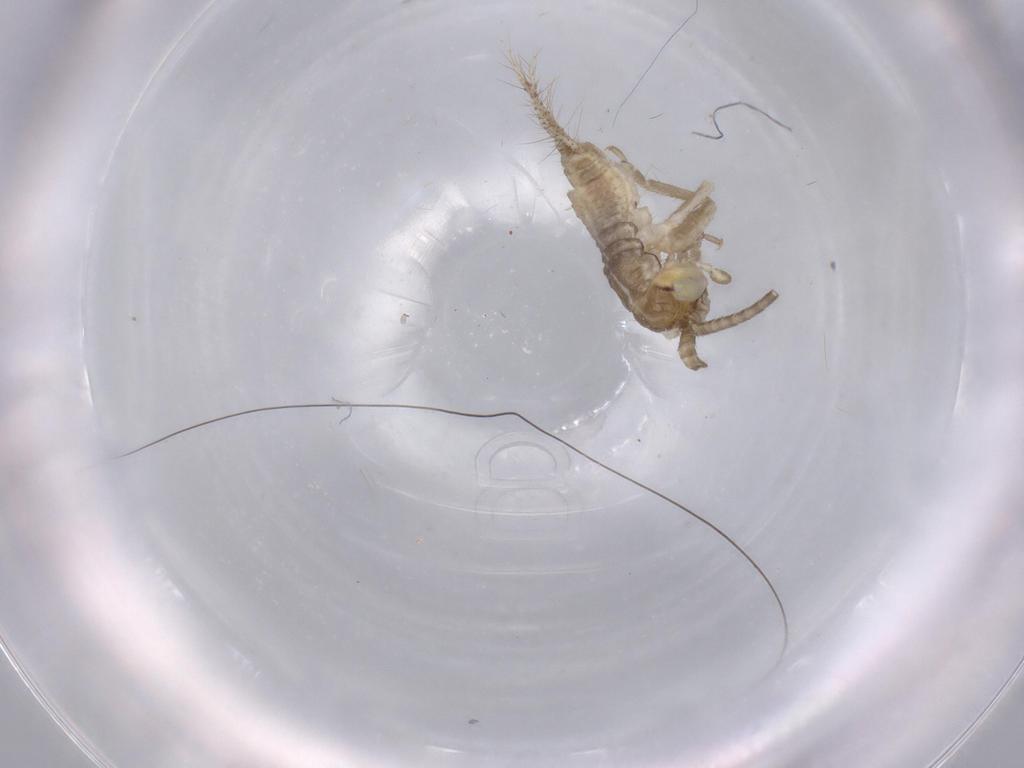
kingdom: Animalia
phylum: Arthropoda
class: Insecta
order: Orthoptera
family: Gryllidae
